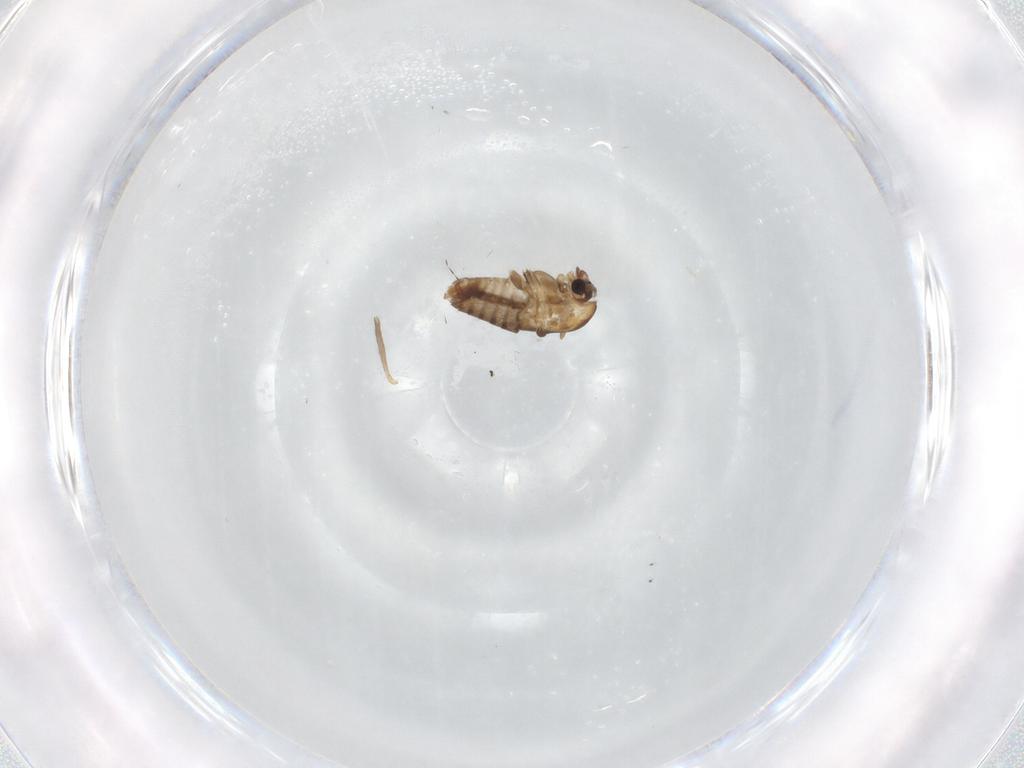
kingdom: Animalia
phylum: Arthropoda
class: Insecta
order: Diptera
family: Chironomidae
